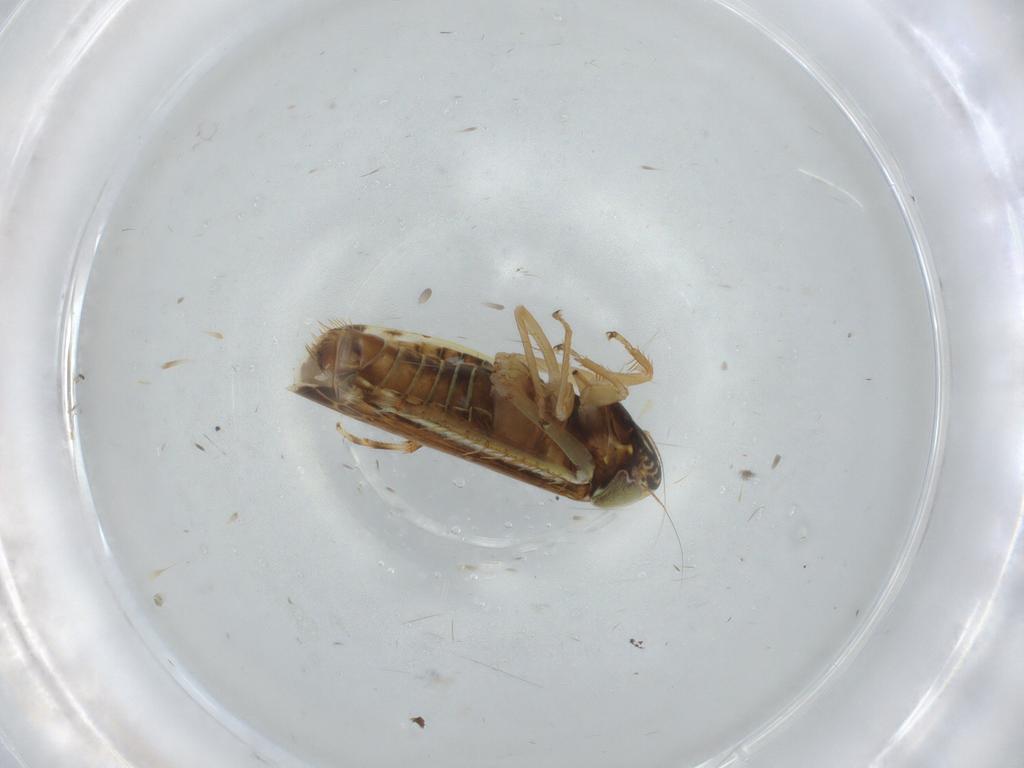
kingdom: Animalia
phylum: Arthropoda
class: Insecta
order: Hemiptera
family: Cicadellidae
